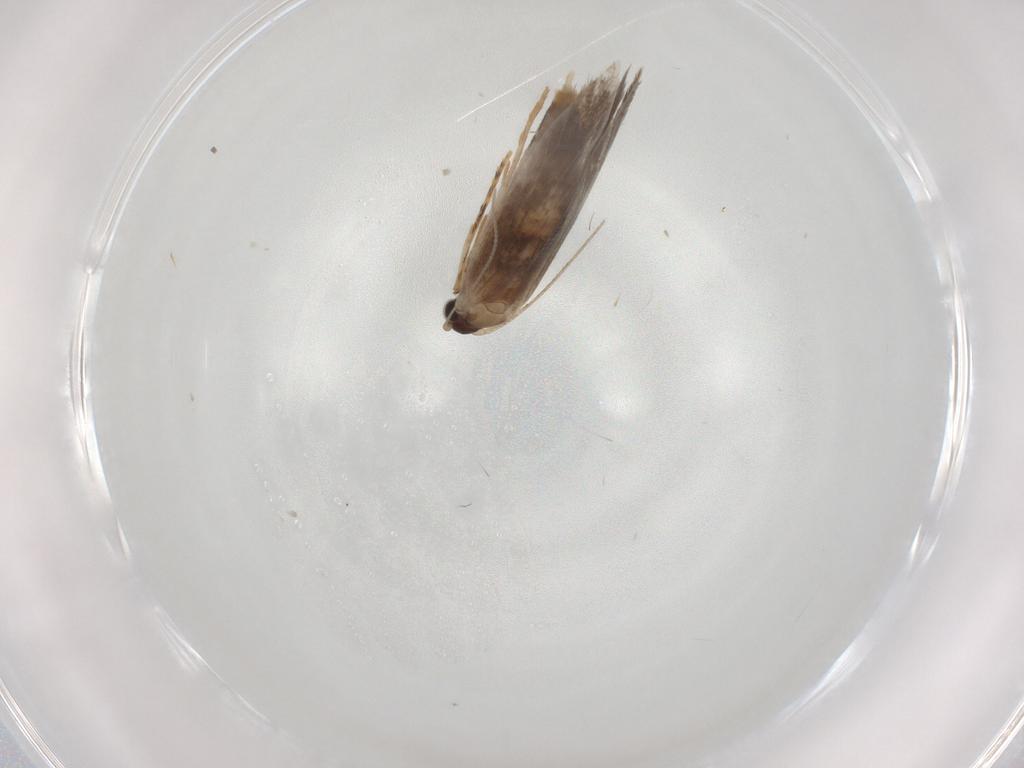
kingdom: Animalia
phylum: Arthropoda
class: Insecta
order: Lepidoptera
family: Tineidae
